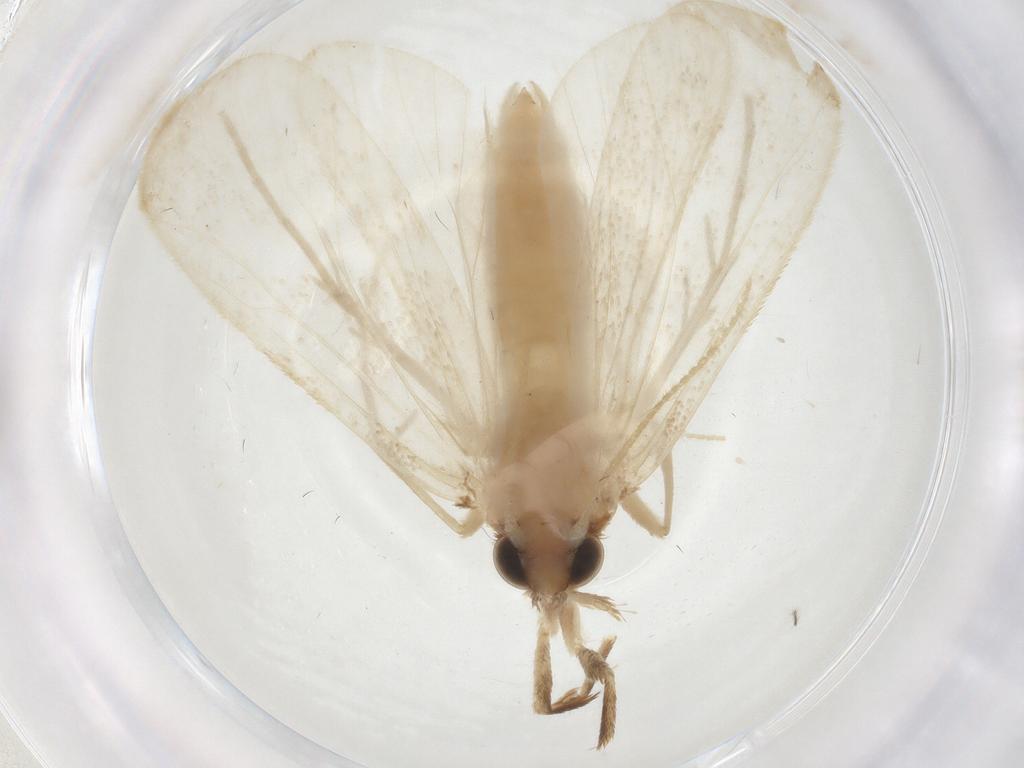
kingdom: Animalia
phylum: Arthropoda
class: Insecta
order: Lepidoptera
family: Crambidae
